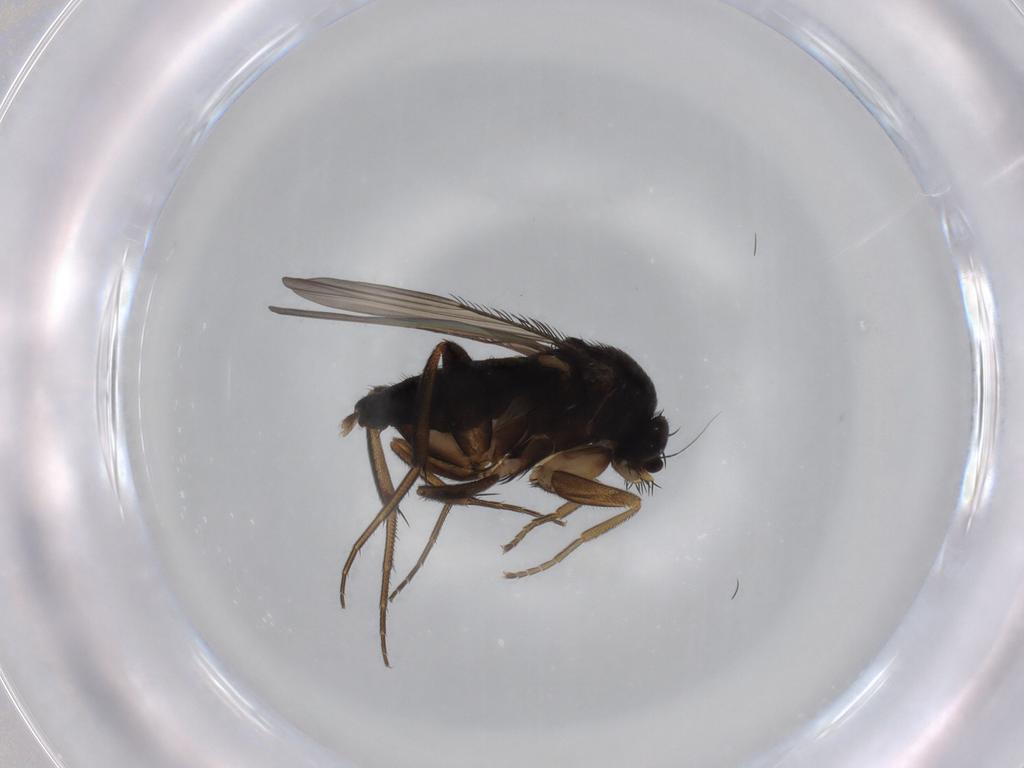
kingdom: Animalia
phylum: Arthropoda
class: Insecta
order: Diptera
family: Phoridae
